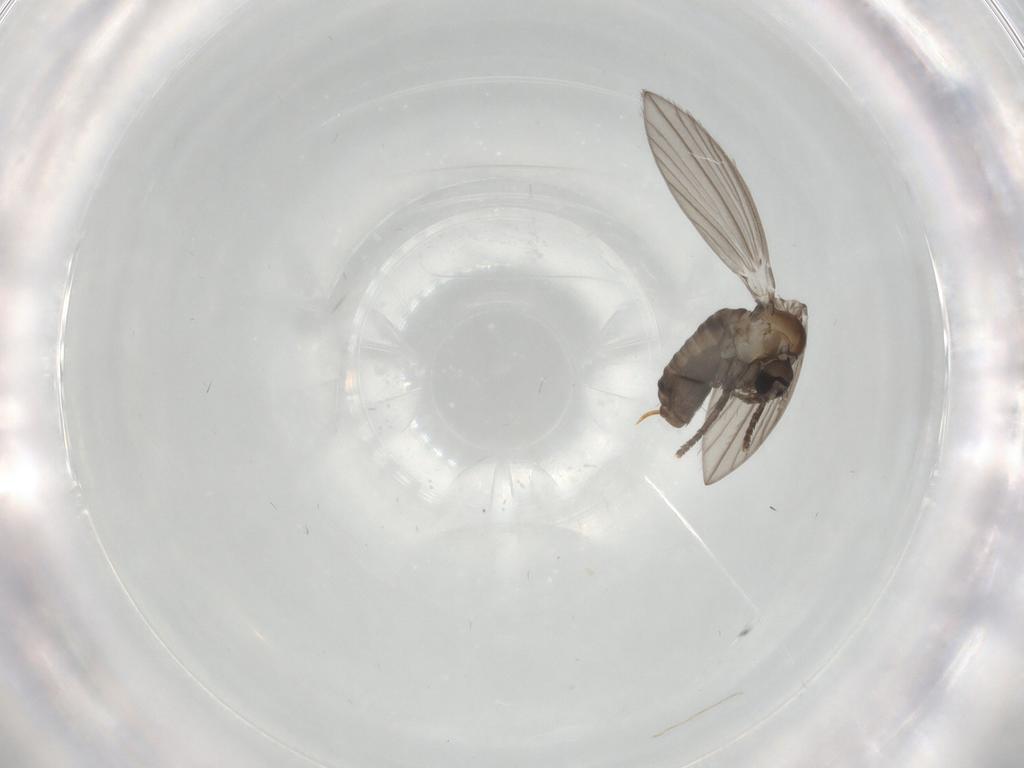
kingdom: Animalia
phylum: Arthropoda
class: Insecta
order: Diptera
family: Psychodidae
